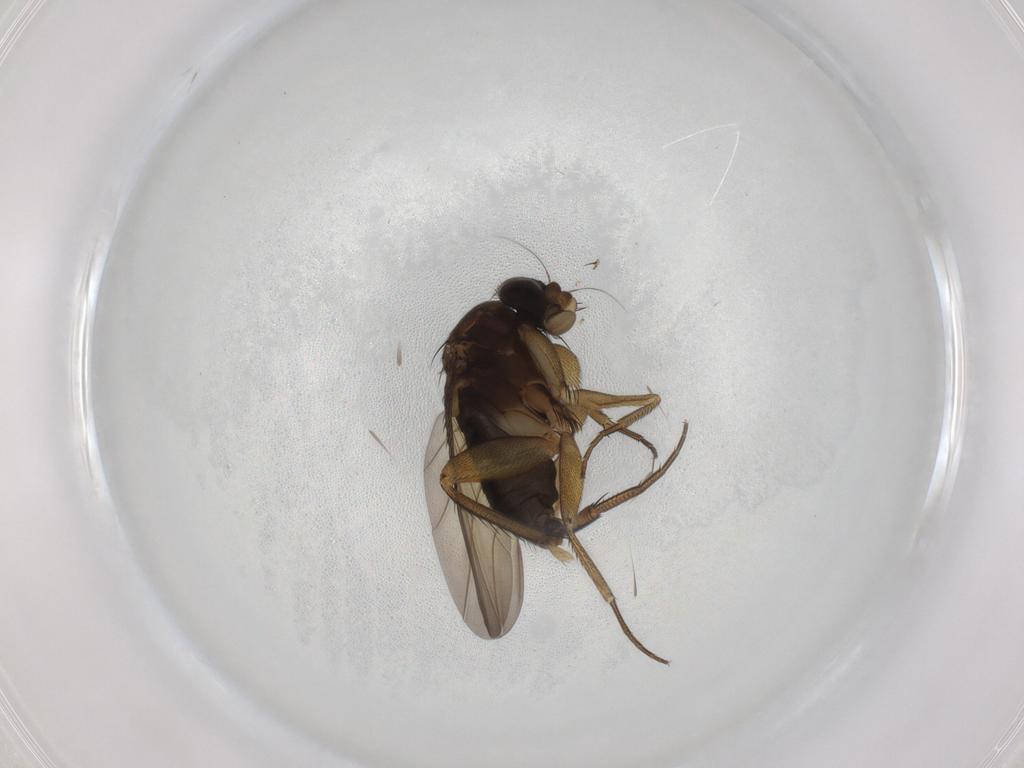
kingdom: Animalia
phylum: Arthropoda
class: Insecta
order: Diptera
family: Phoridae
